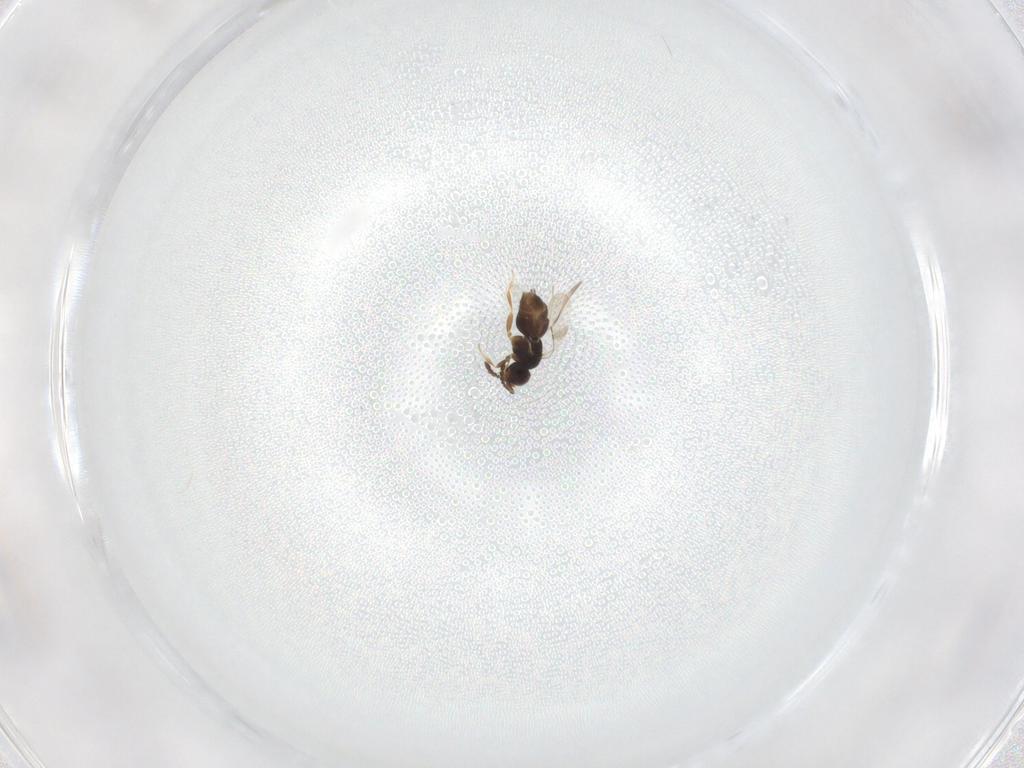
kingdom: Animalia
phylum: Arthropoda
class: Insecta
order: Hymenoptera
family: Ceraphronidae
